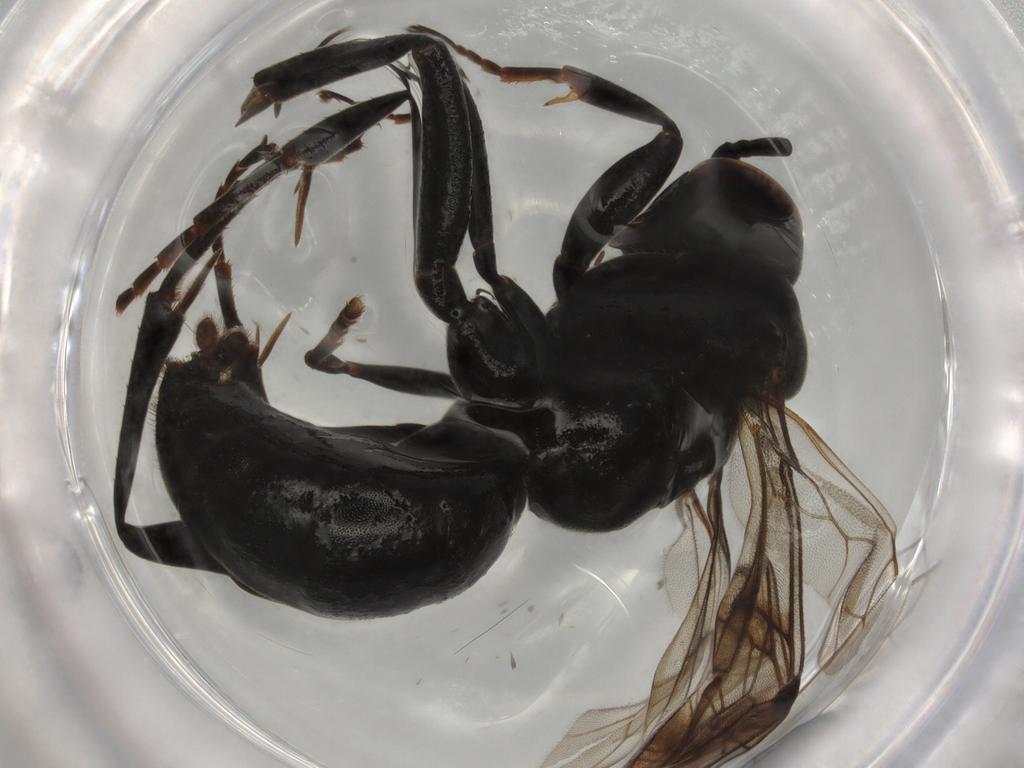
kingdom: Animalia
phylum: Arthropoda
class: Insecta
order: Hymenoptera
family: Pompilidae
